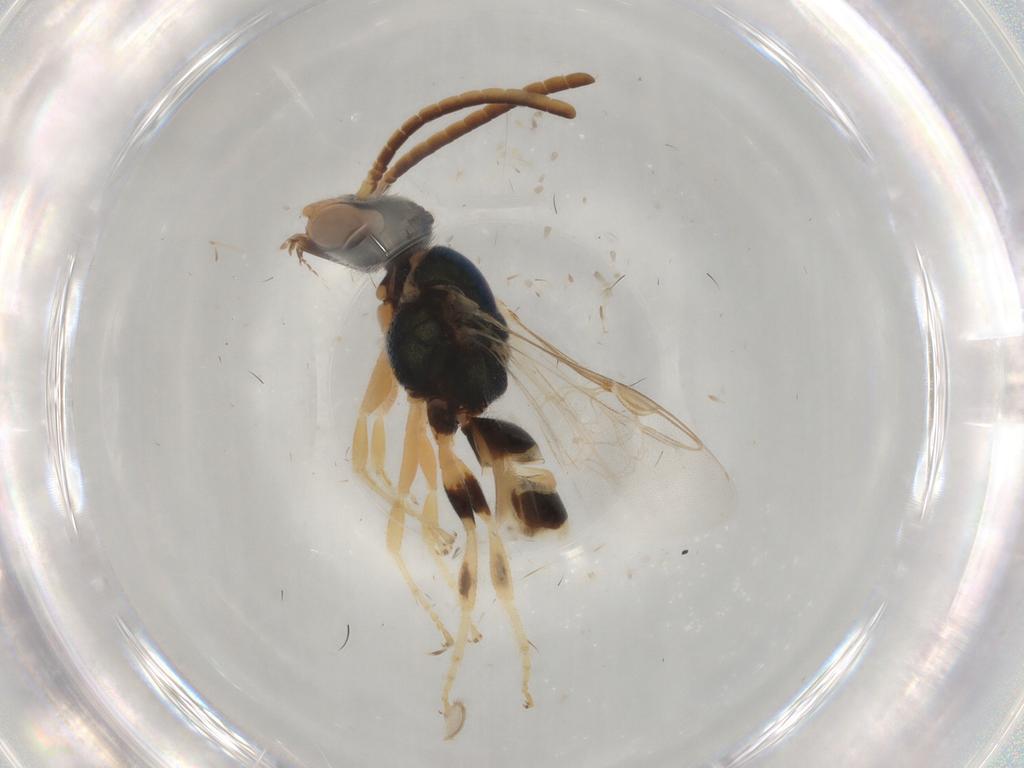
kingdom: Animalia
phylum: Arthropoda
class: Insecta
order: Hymenoptera
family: Halictidae
